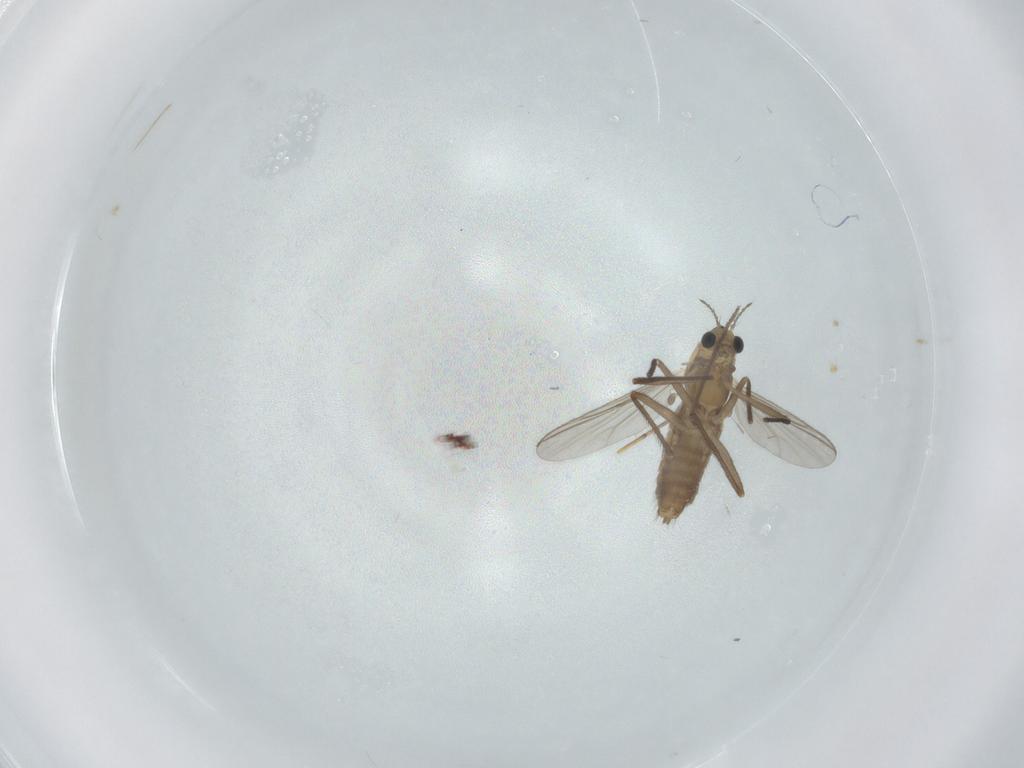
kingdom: Animalia
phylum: Arthropoda
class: Insecta
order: Diptera
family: Chironomidae
